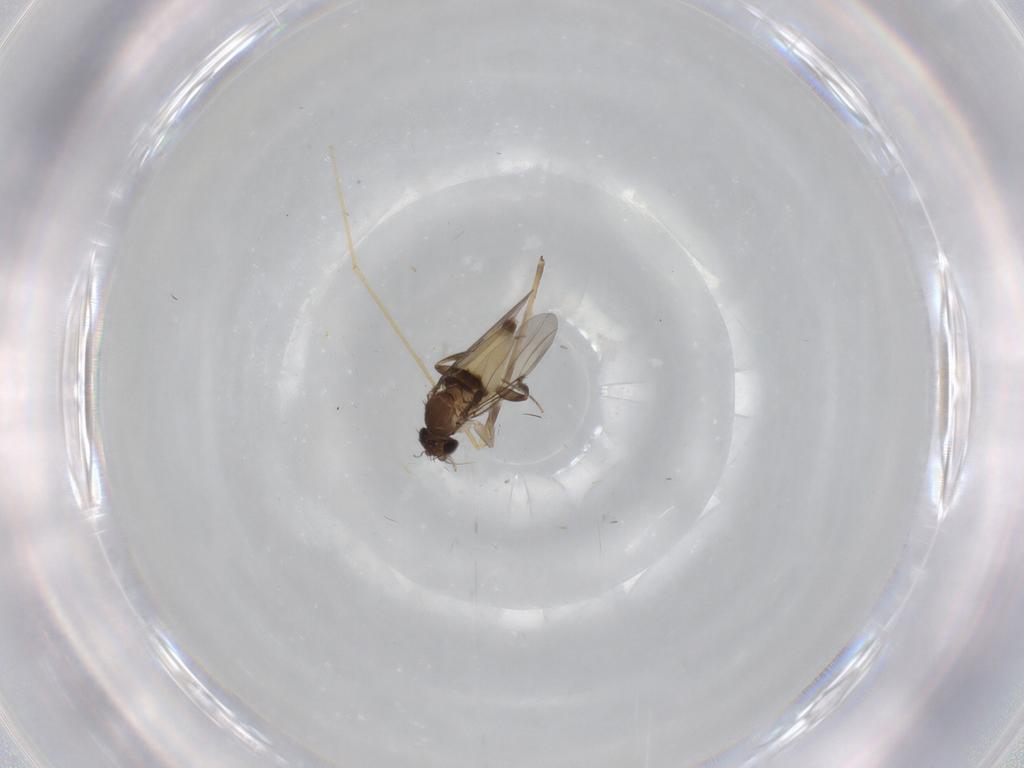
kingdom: Animalia
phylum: Arthropoda
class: Insecta
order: Diptera
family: Phoridae
